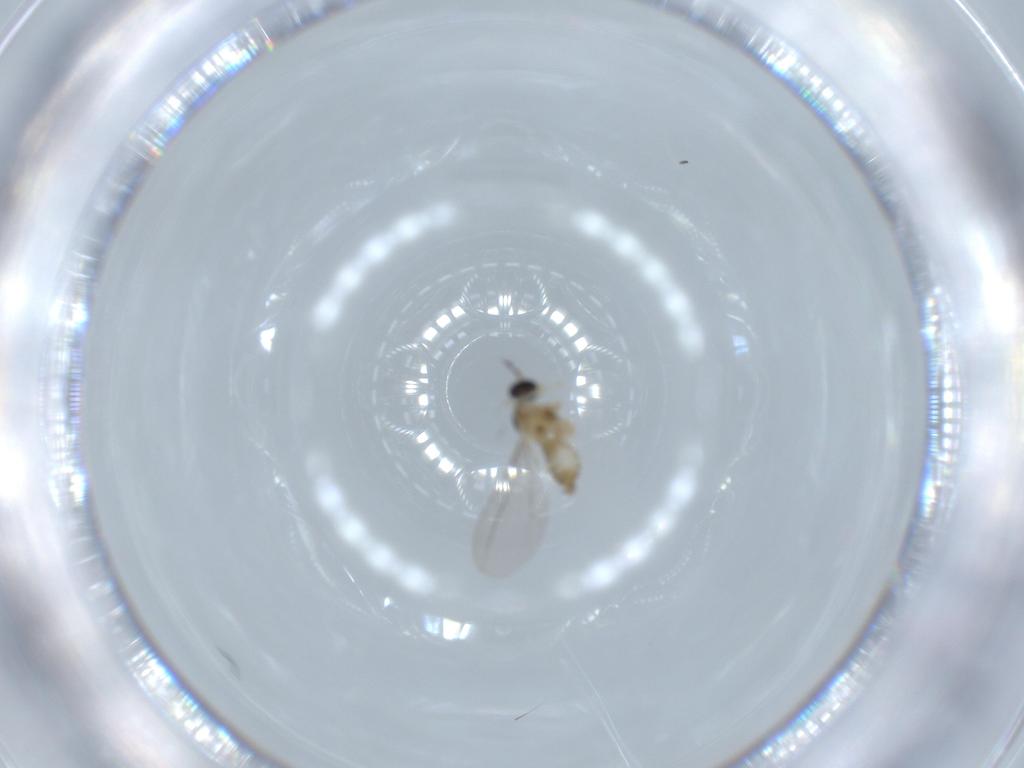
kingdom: Animalia
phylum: Arthropoda
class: Insecta
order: Diptera
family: Cecidomyiidae
